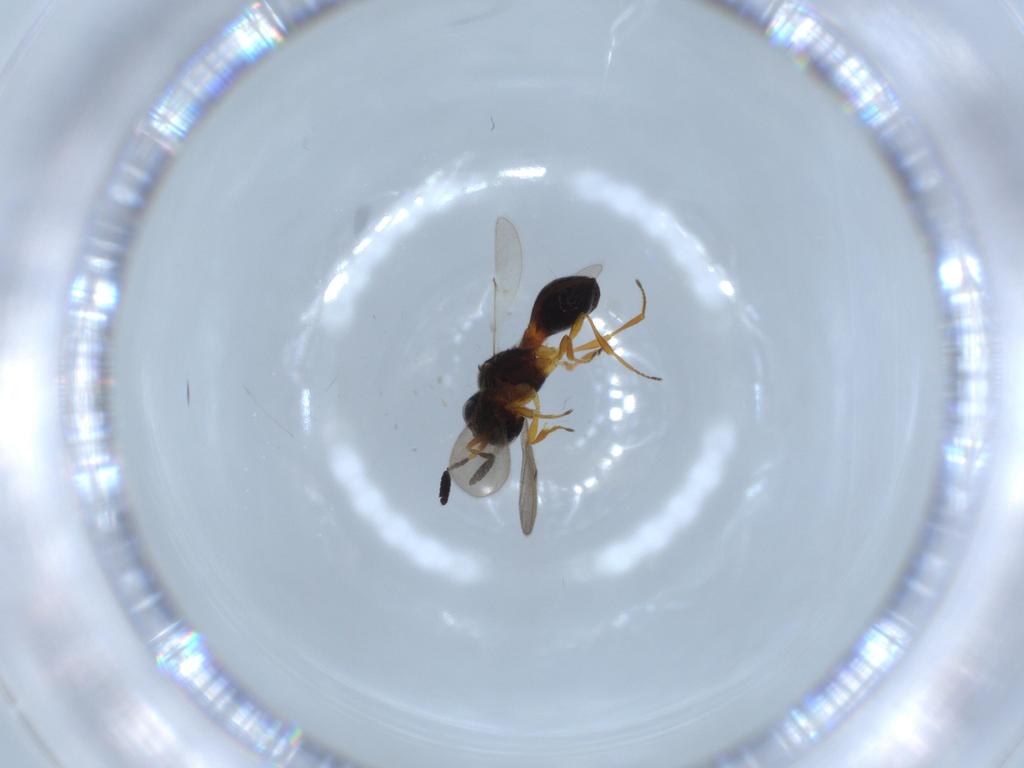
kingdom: Animalia
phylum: Arthropoda
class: Insecta
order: Hymenoptera
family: Scelionidae
